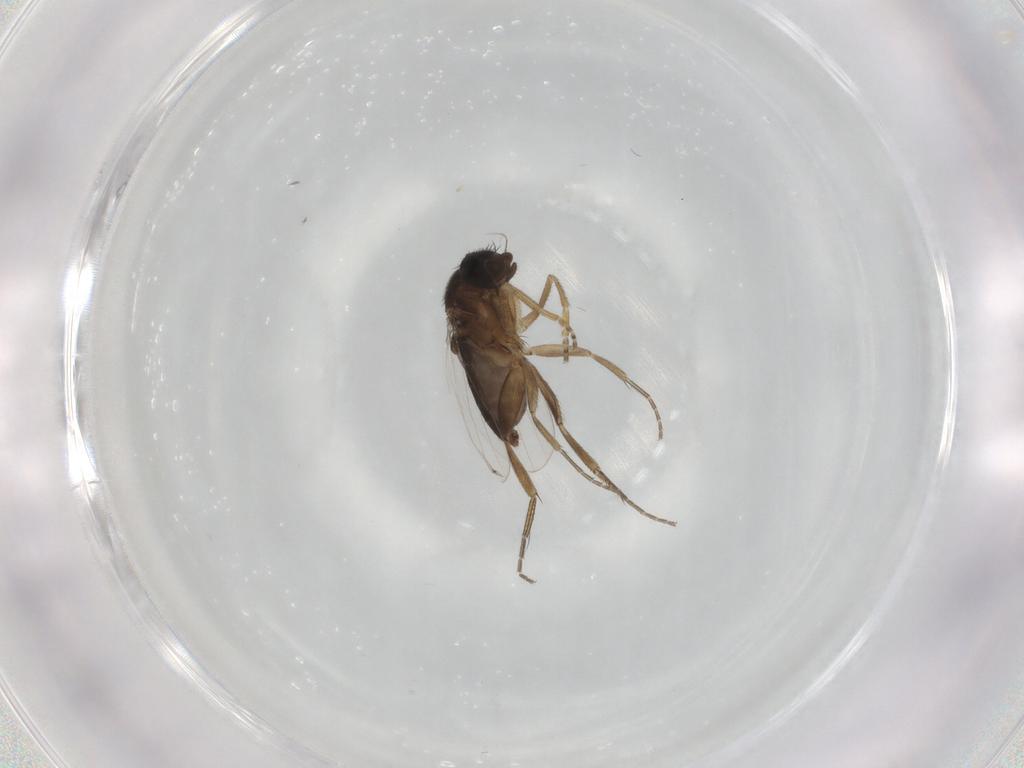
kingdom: Animalia
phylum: Arthropoda
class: Insecta
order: Diptera
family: Phoridae
